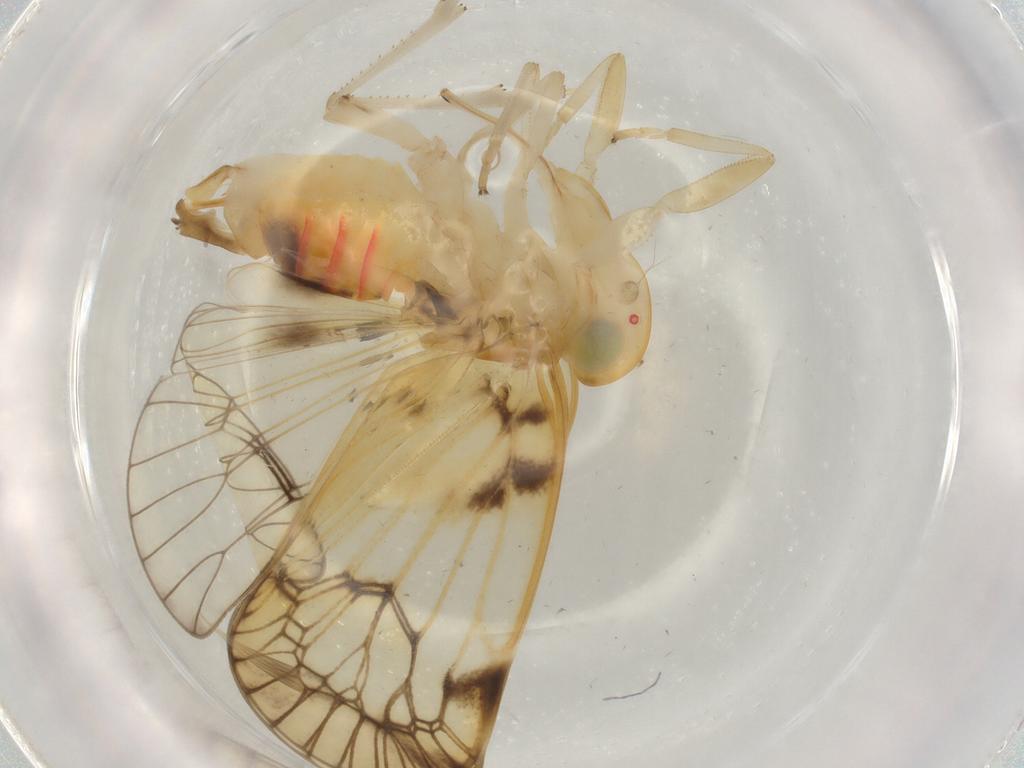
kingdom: Animalia
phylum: Arthropoda
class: Insecta
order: Hemiptera
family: Cixiidae
